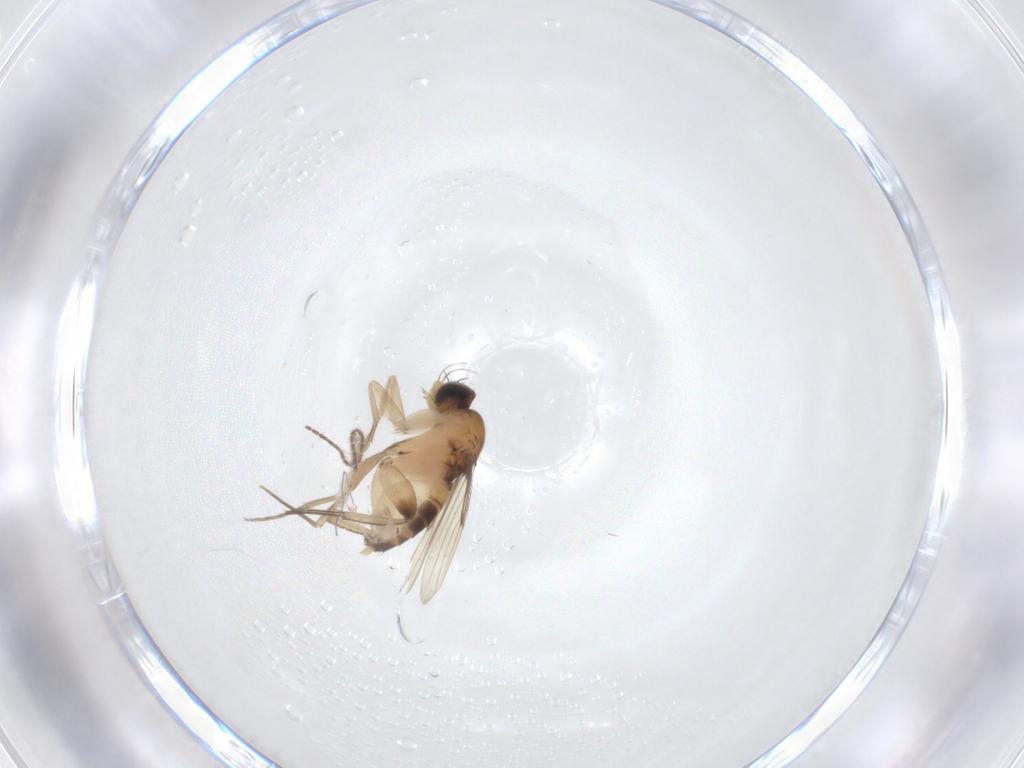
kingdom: Animalia
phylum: Arthropoda
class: Insecta
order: Diptera
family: Sciaridae
